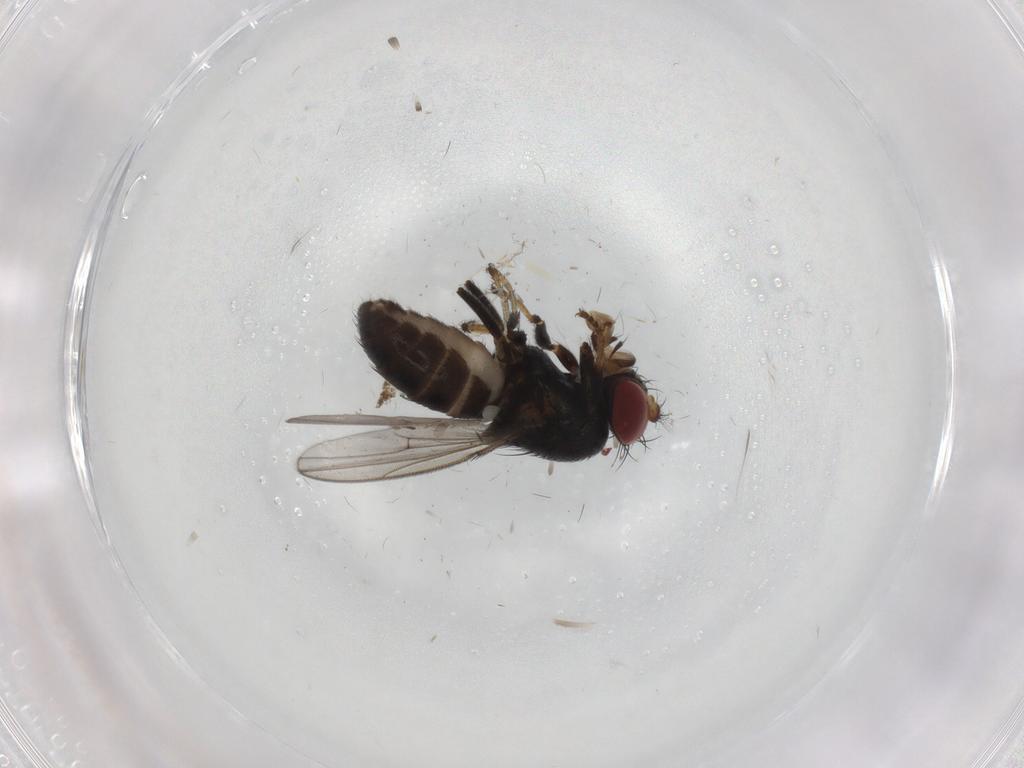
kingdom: Animalia
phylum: Arthropoda
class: Insecta
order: Diptera
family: Ephydridae
